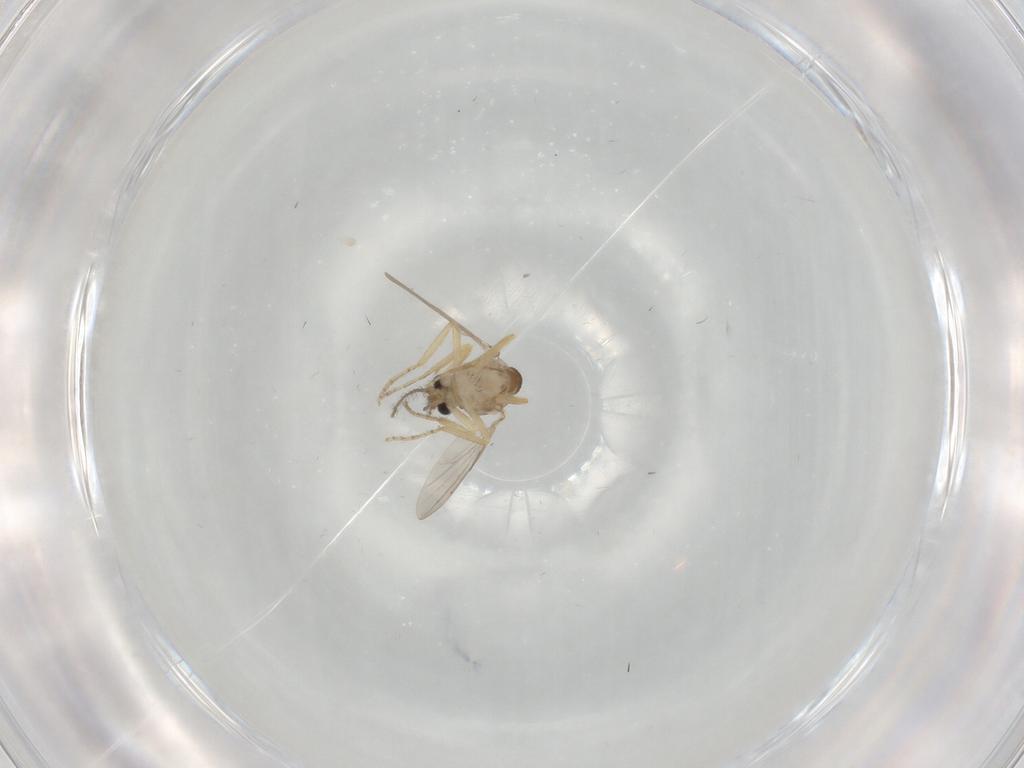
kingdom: Animalia
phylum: Arthropoda
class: Insecta
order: Diptera
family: Ceratopogonidae
